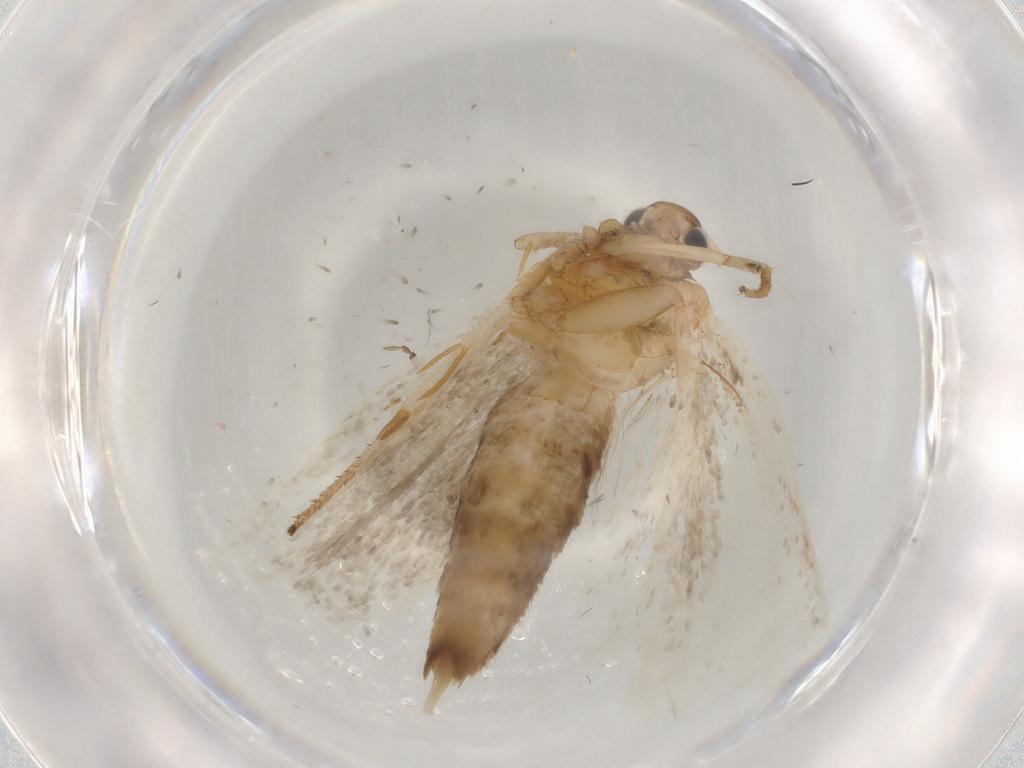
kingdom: Animalia
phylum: Arthropoda
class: Insecta
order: Lepidoptera
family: Gelechiidae
